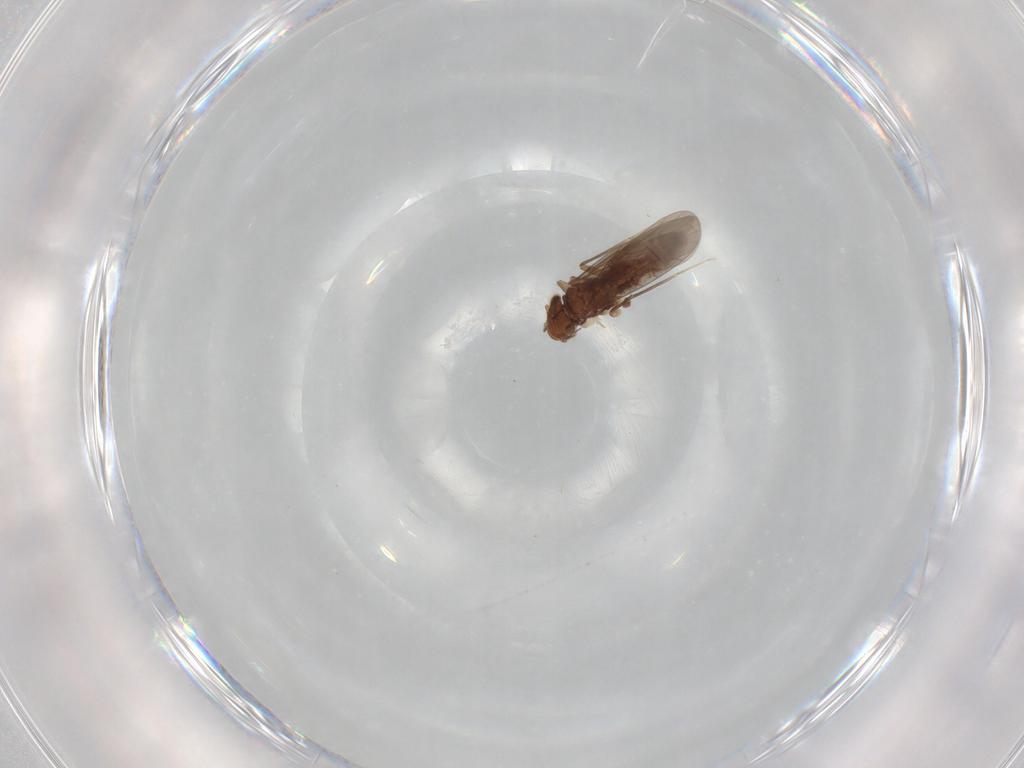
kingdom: Animalia
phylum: Arthropoda
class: Insecta
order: Psocodea
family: Lepidopsocidae
